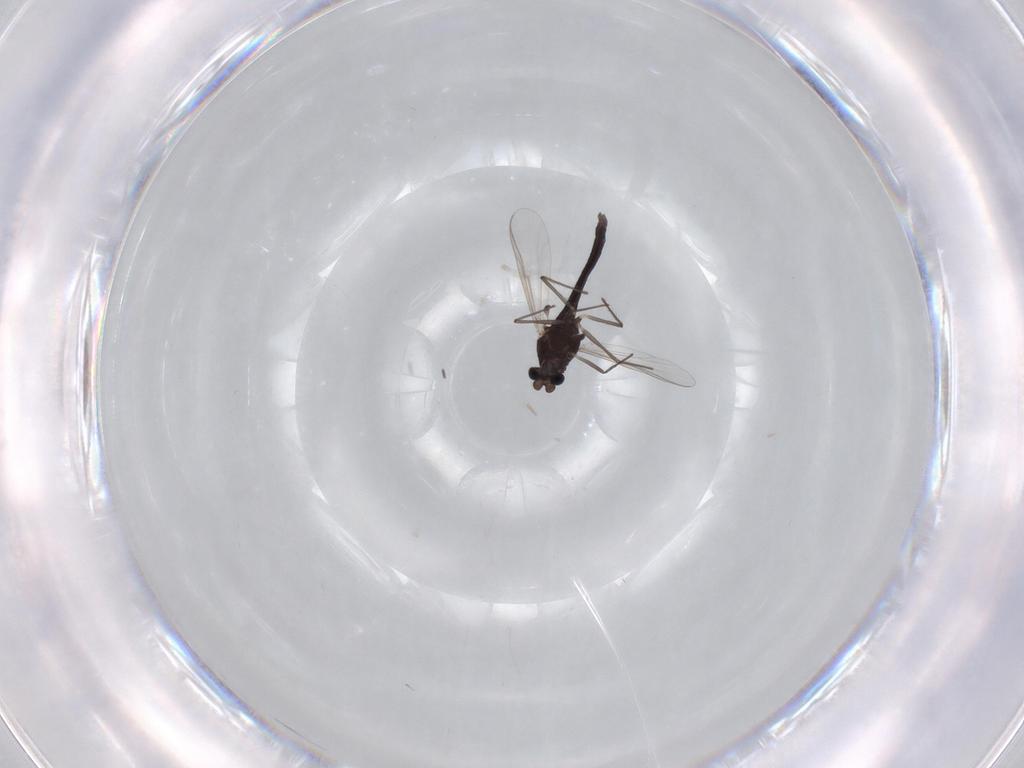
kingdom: Animalia
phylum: Arthropoda
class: Insecta
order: Diptera
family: Chironomidae
